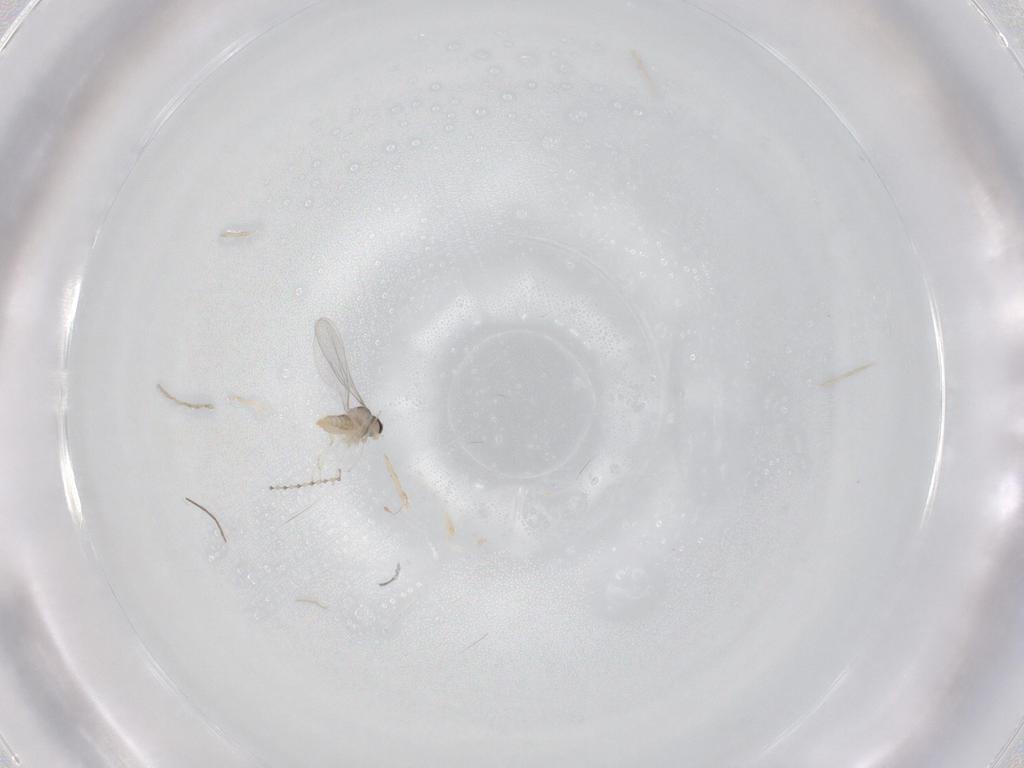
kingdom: Animalia
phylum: Arthropoda
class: Insecta
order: Diptera
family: Cecidomyiidae
